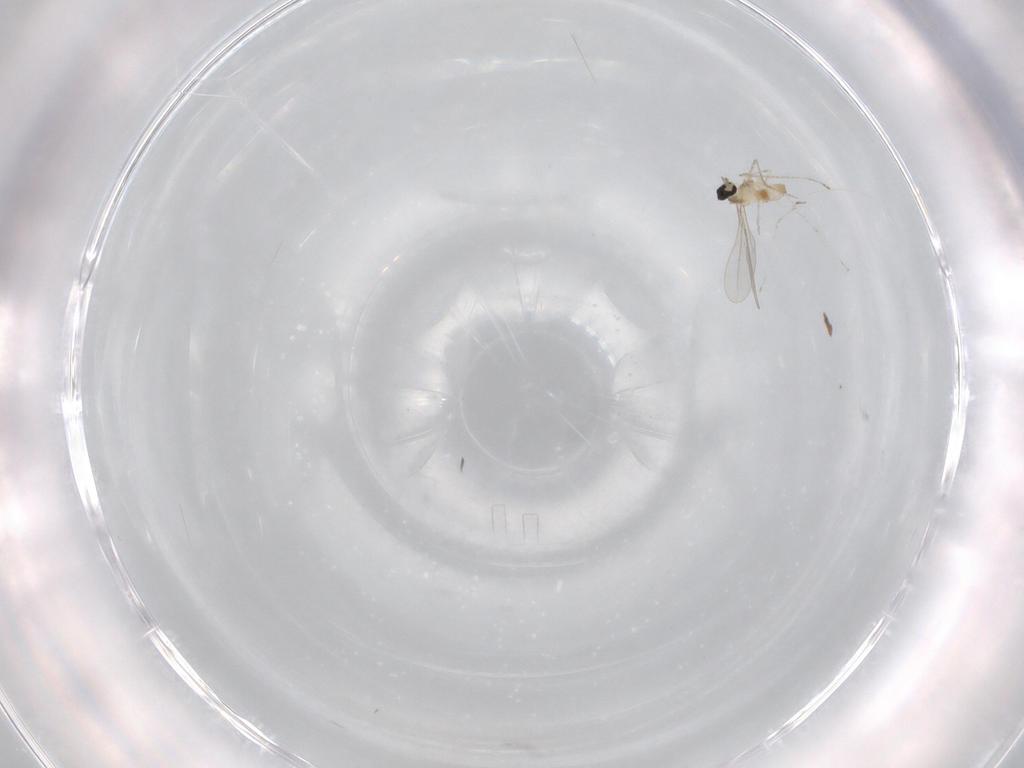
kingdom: Animalia
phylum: Arthropoda
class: Insecta
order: Diptera
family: Cecidomyiidae
